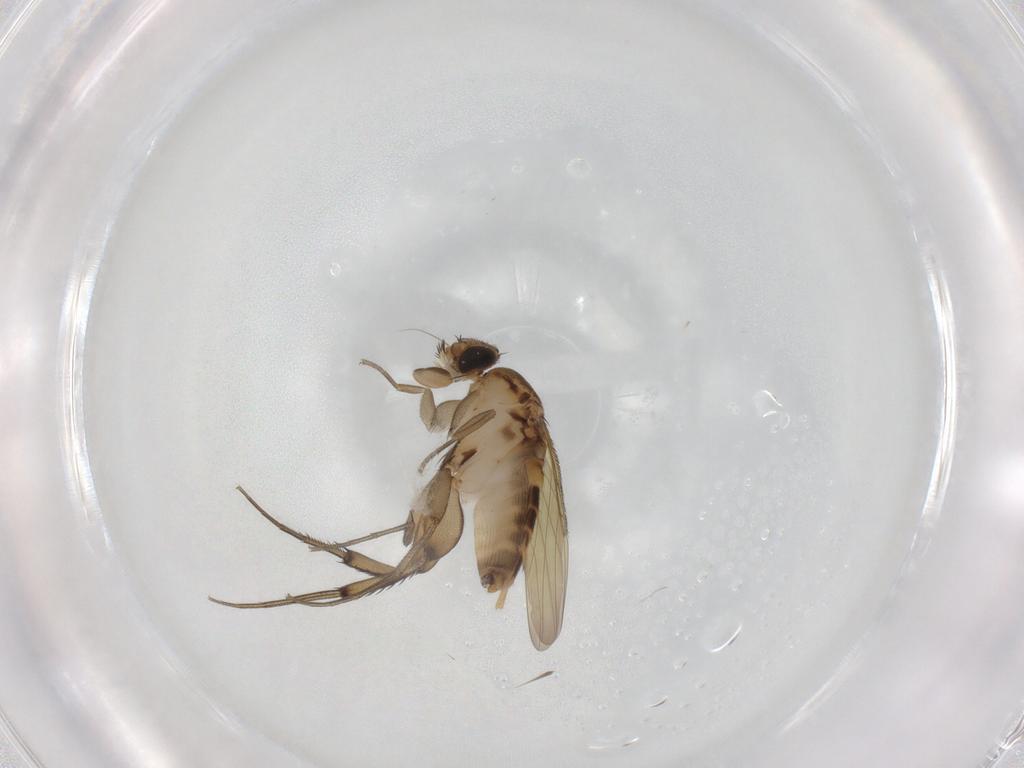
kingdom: Animalia
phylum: Arthropoda
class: Insecta
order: Diptera
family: Phoridae
